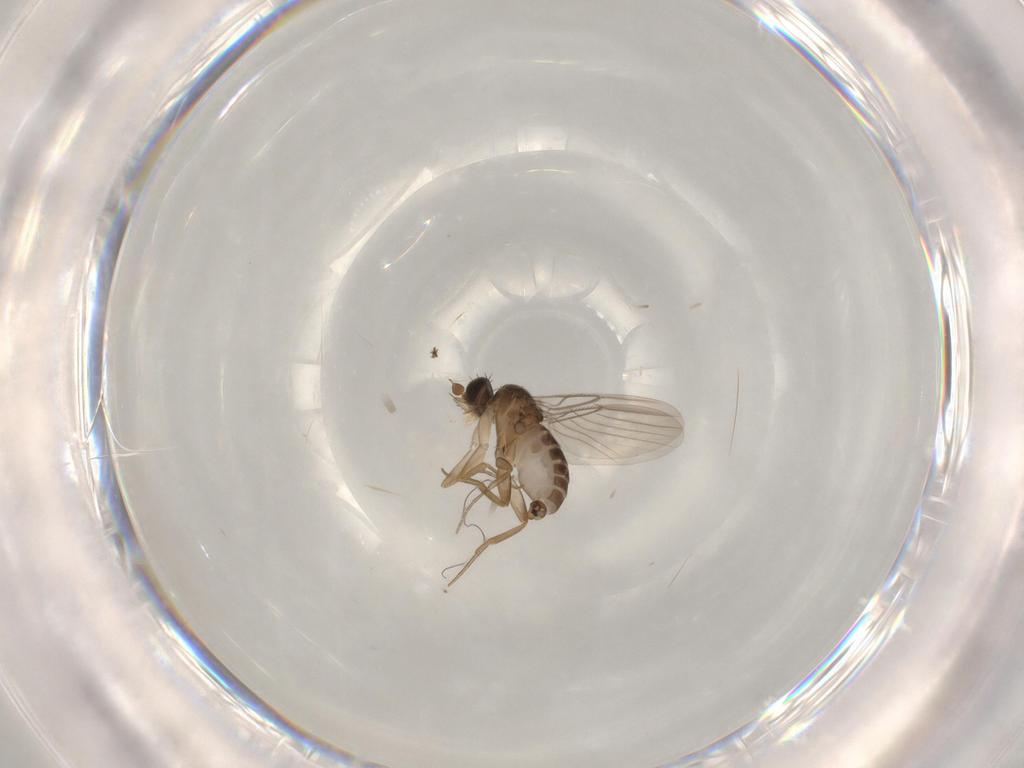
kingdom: Animalia
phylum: Arthropoda
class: Insecta
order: Diptera
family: Phoridae
